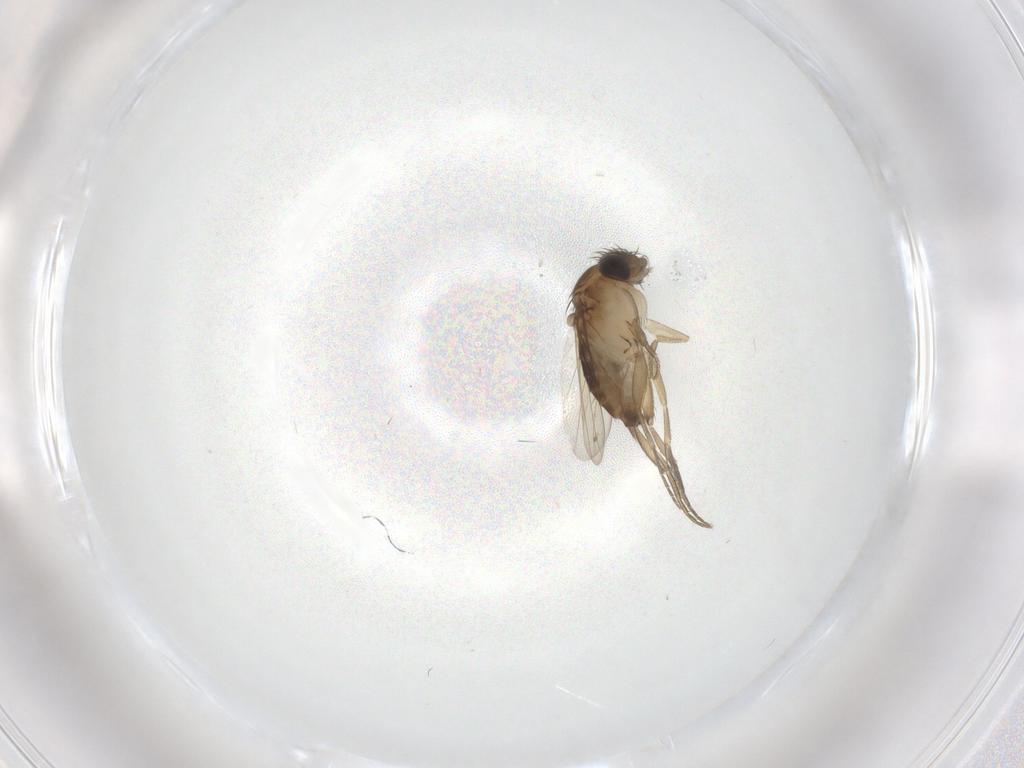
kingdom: Animalia
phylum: Arthropoda
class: Insecta
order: Diptera
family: Phoridae
